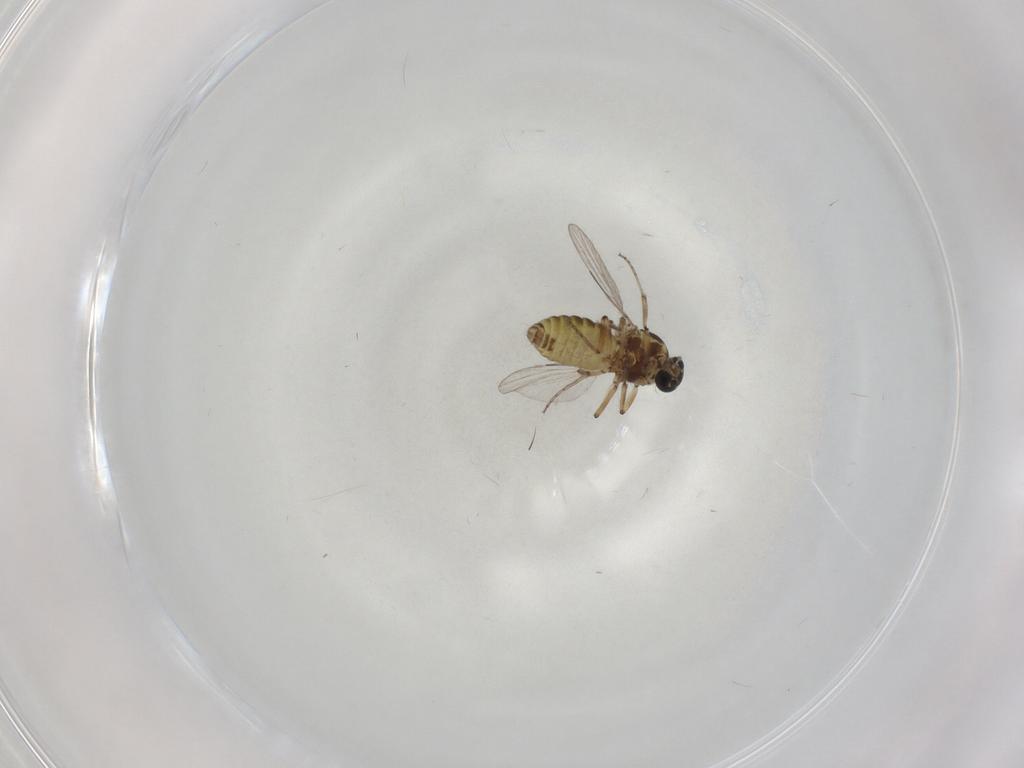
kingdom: Animalia
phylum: Arthropoda
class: Insecta
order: Diptera
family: Ceratopogonidae
